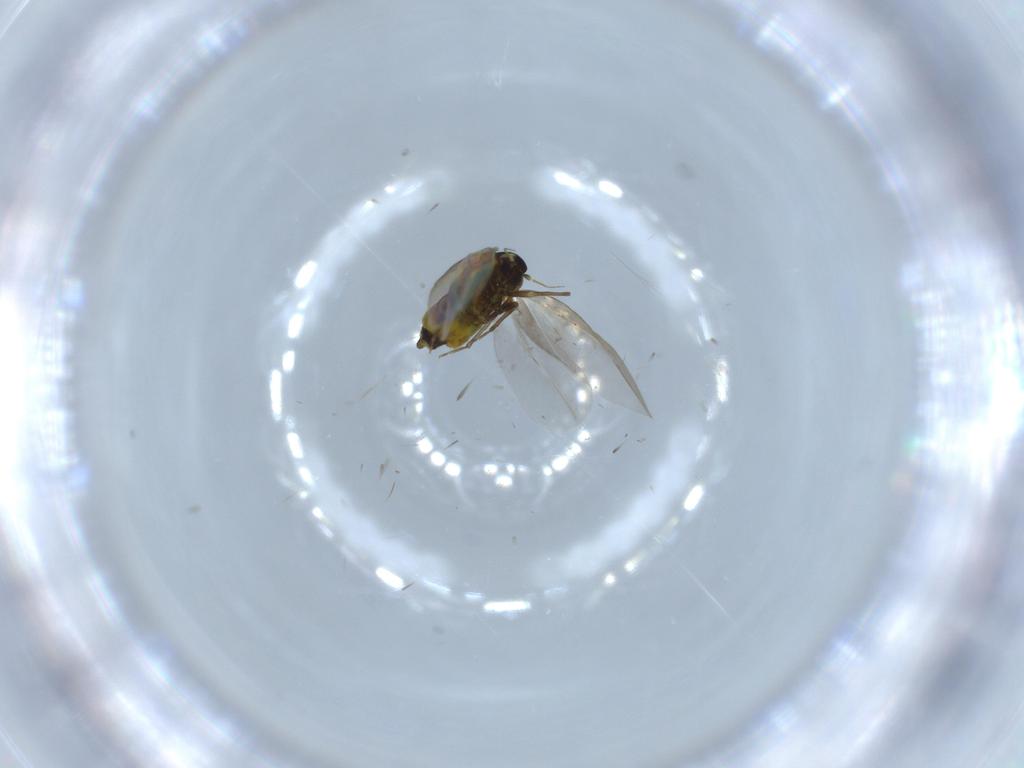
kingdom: Animalia
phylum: Arthropoda
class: Insecta
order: Hemiptera
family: Aleyrodidae
